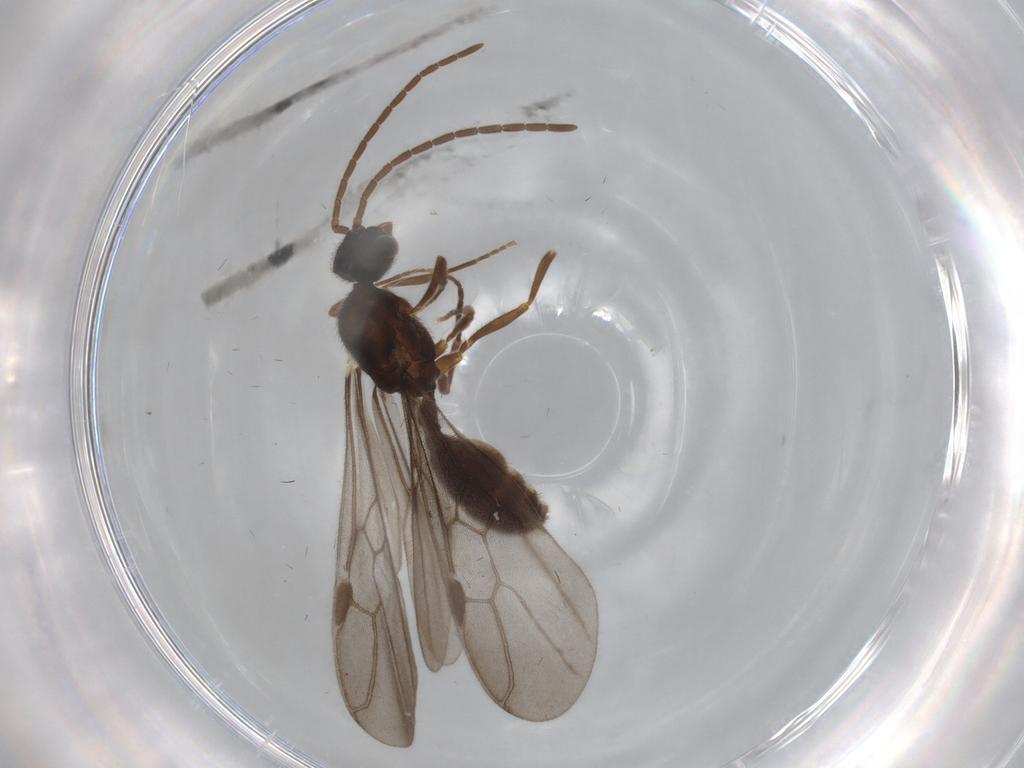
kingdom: Animalia
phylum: Arthropoda
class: Insecta
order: Hymenoptera
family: Formicidae
